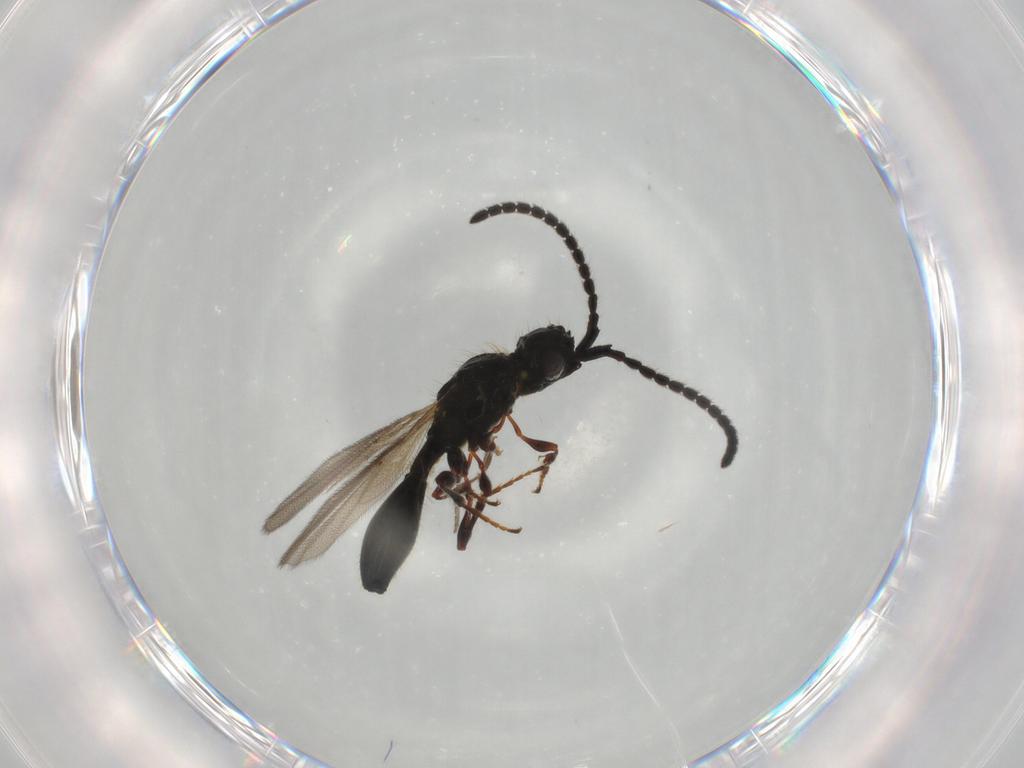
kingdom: Animalia
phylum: Arthropoda
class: Insecta
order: Hymenoptera
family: Diapriidae
